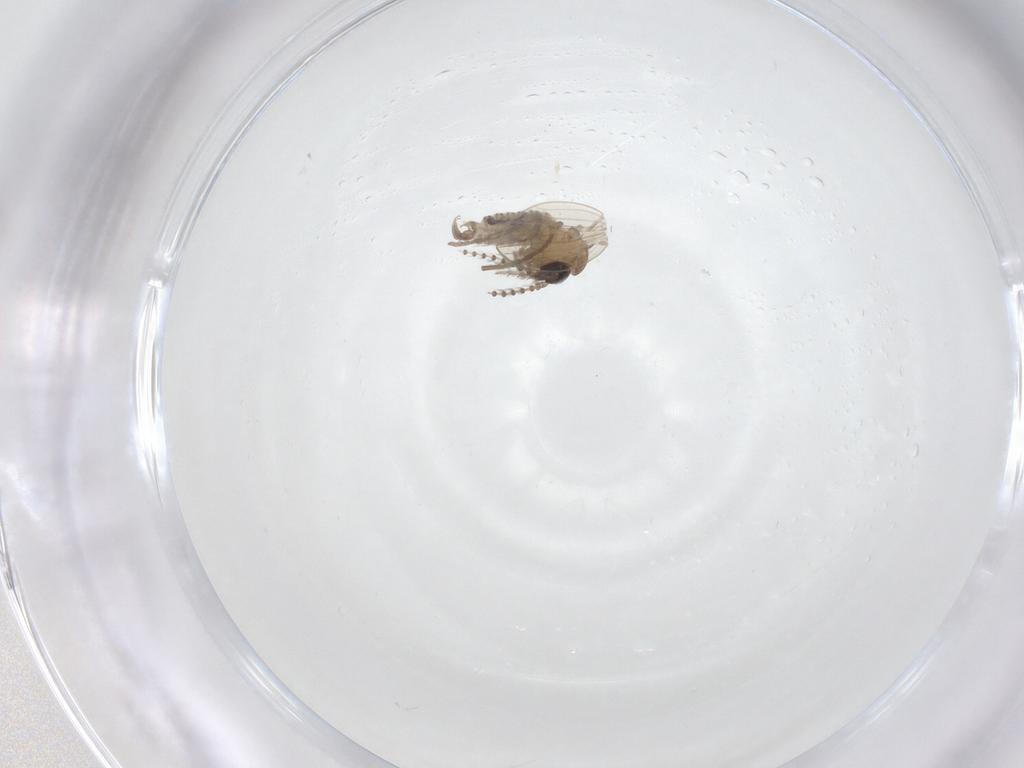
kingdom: Animalia
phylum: Arthropoda
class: Insecta
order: Diptera
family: Psychodidae
